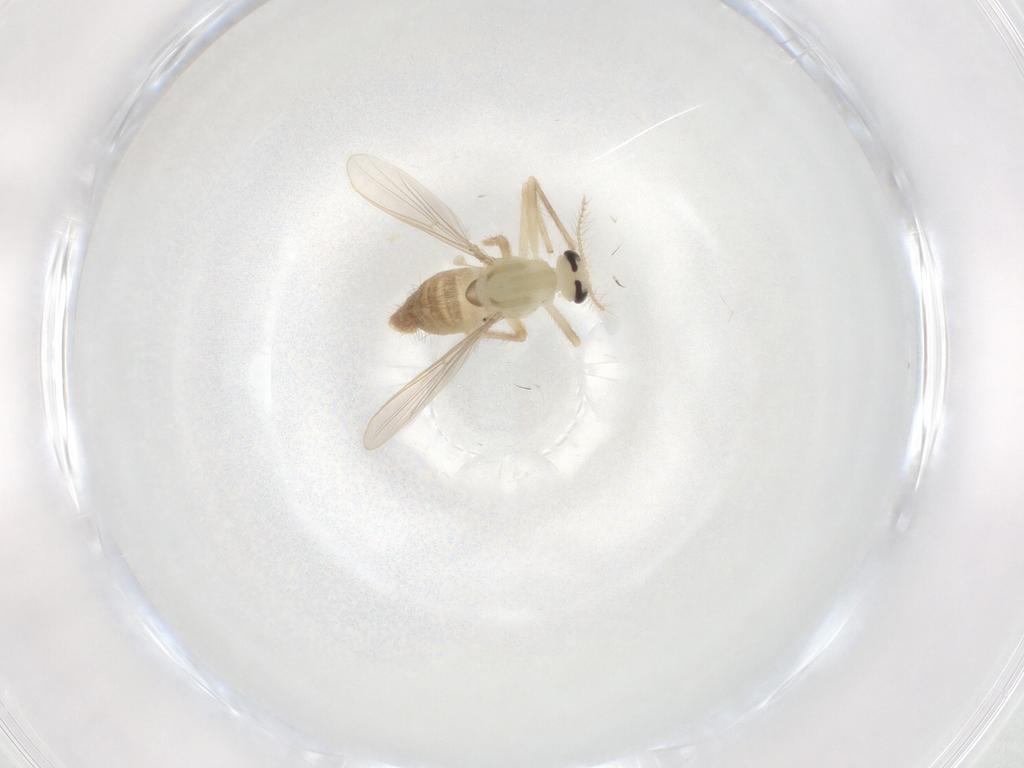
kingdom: Animalia
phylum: Arthropoda
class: Insecta
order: Diptera
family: Chironomidae
